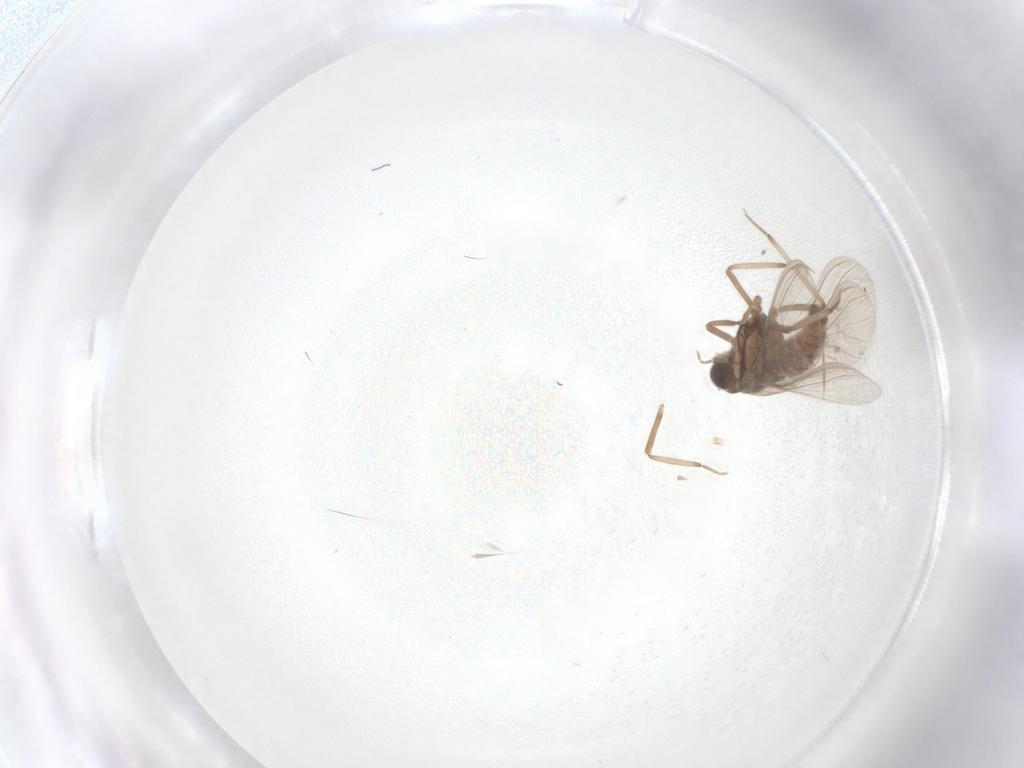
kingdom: Animalia
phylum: Arthropoda
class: Insecta
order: Neuroptera
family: Coniopterygidae
